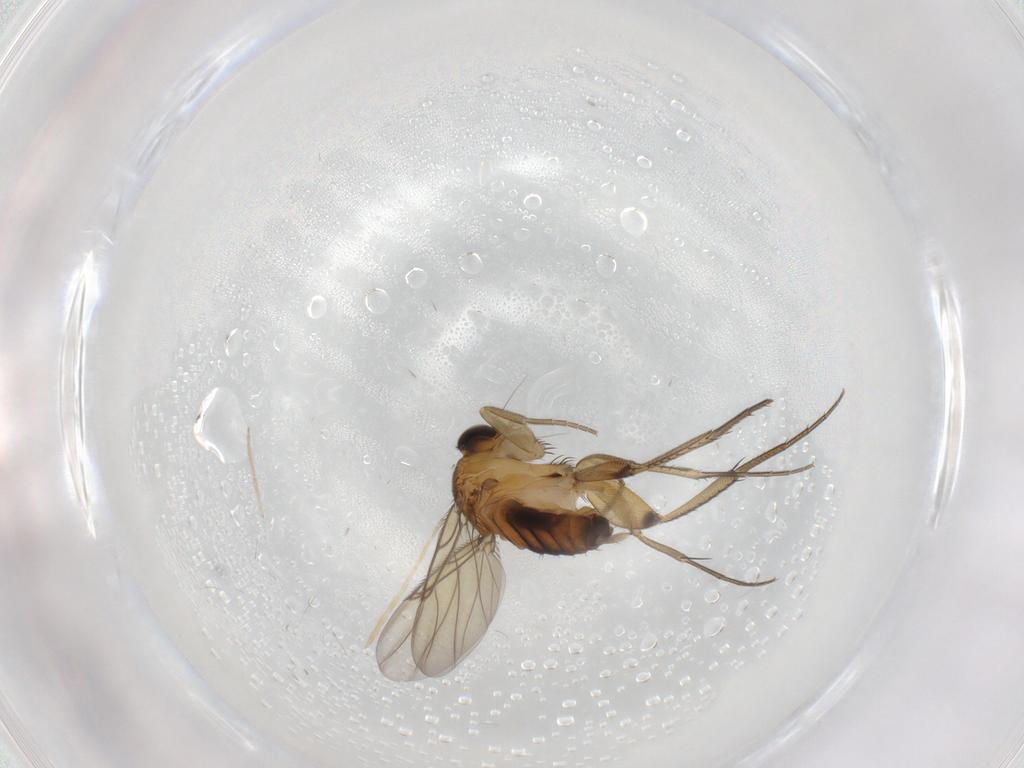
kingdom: Animalia
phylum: Arthropoda
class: Insecta
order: Diptera
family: Phoridae
